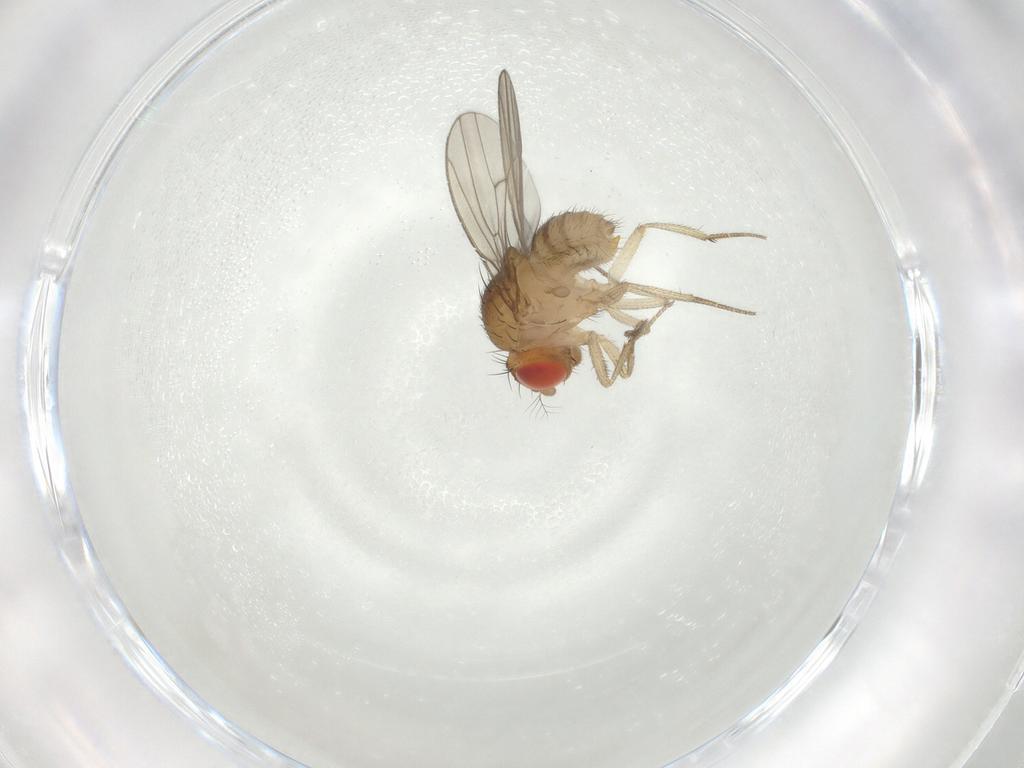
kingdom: Animalia
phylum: Arthropoda
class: Insecta
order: Diptera
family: Drosophilidae
